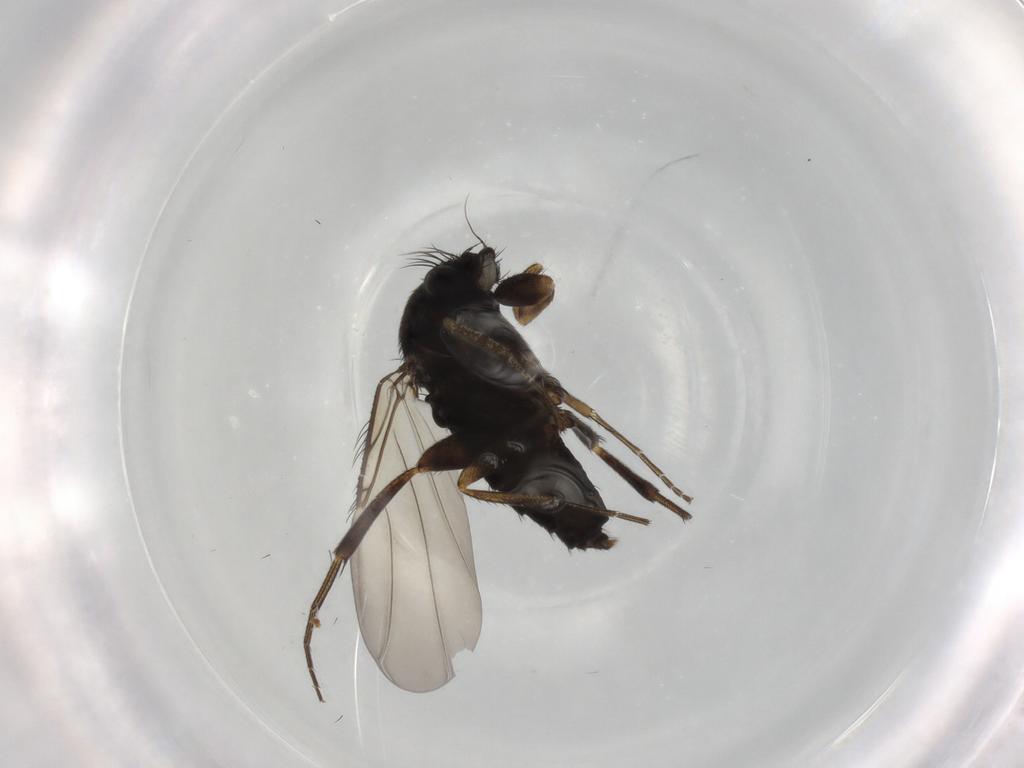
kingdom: Animalia
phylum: Arthropoda
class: Insecta
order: Diptera
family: Phoridae
